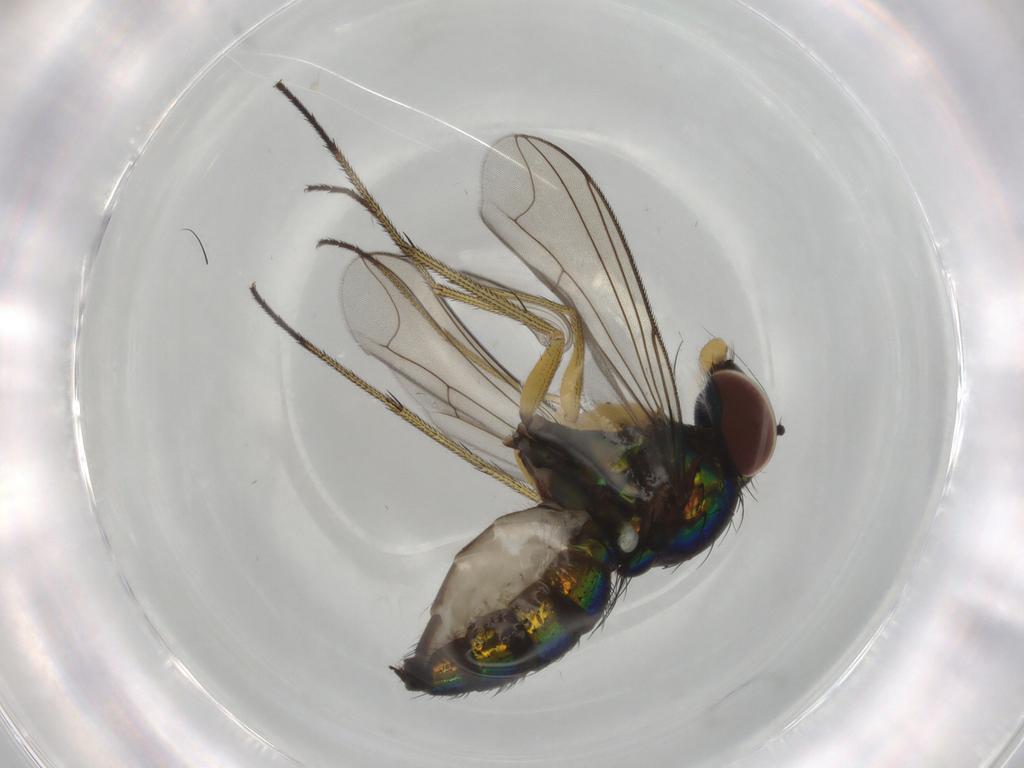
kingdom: Animalia
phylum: Arthropoda
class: Insecta
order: Diptera
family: Dolichopodidae
